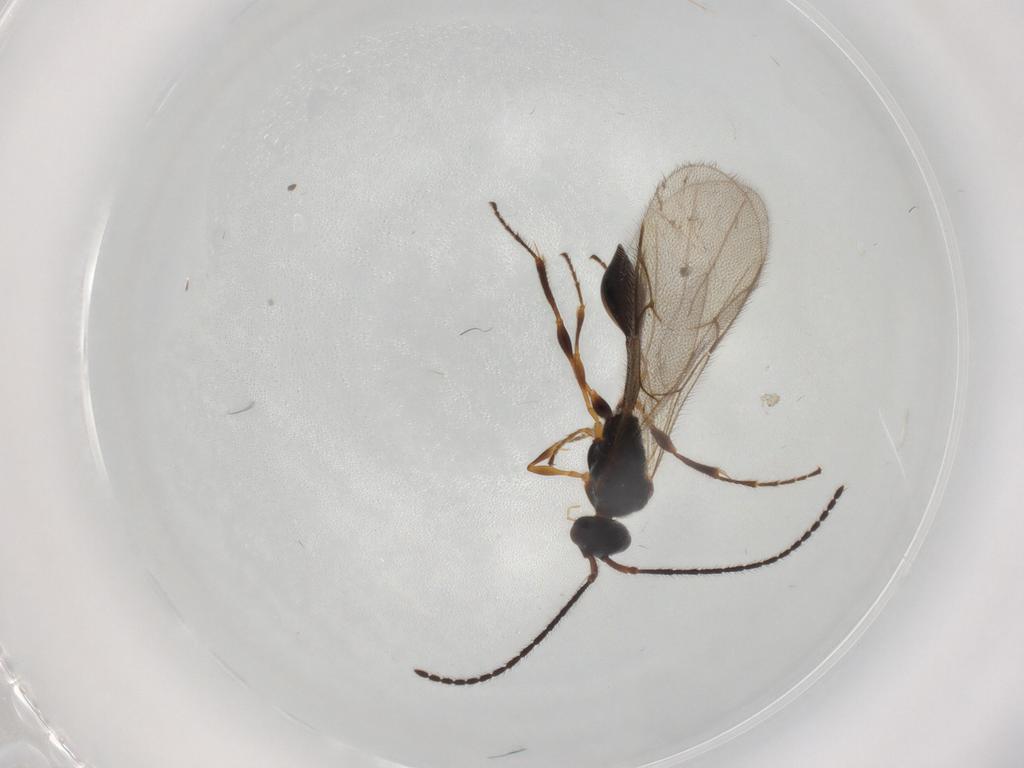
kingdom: Animalia
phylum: Arthropoda
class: Insecta
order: Hymenoptera
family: Diapriidae
